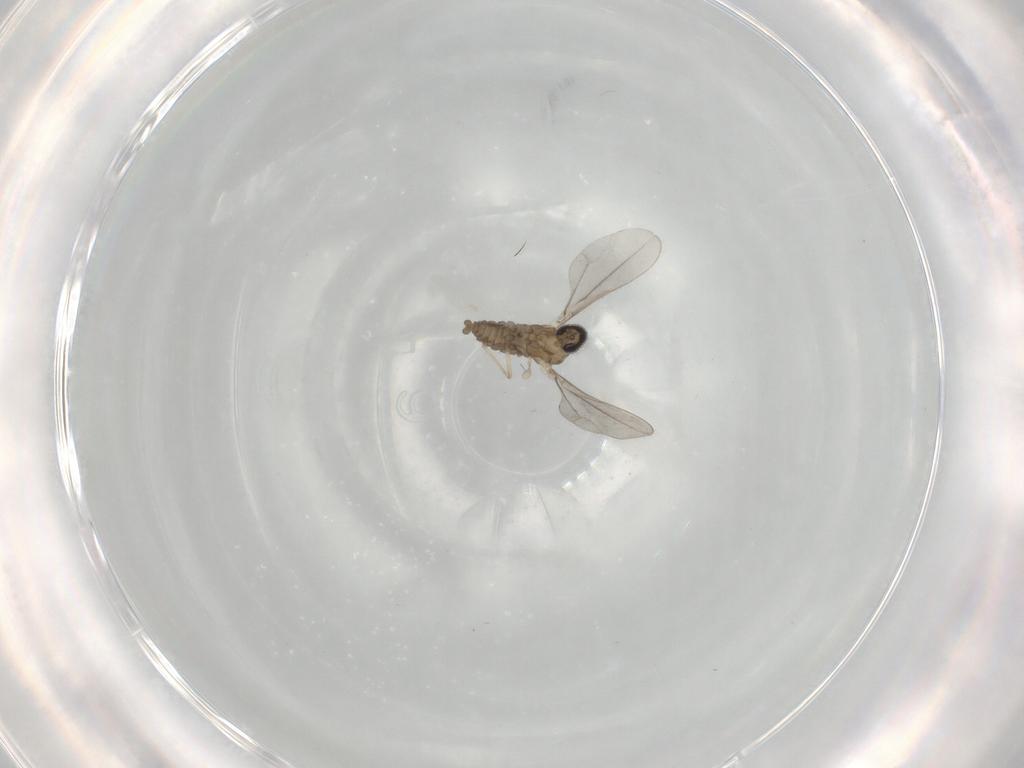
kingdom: Animalia
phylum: Arthropoda
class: Insecta
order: Diptera
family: Cecidomyiidae
